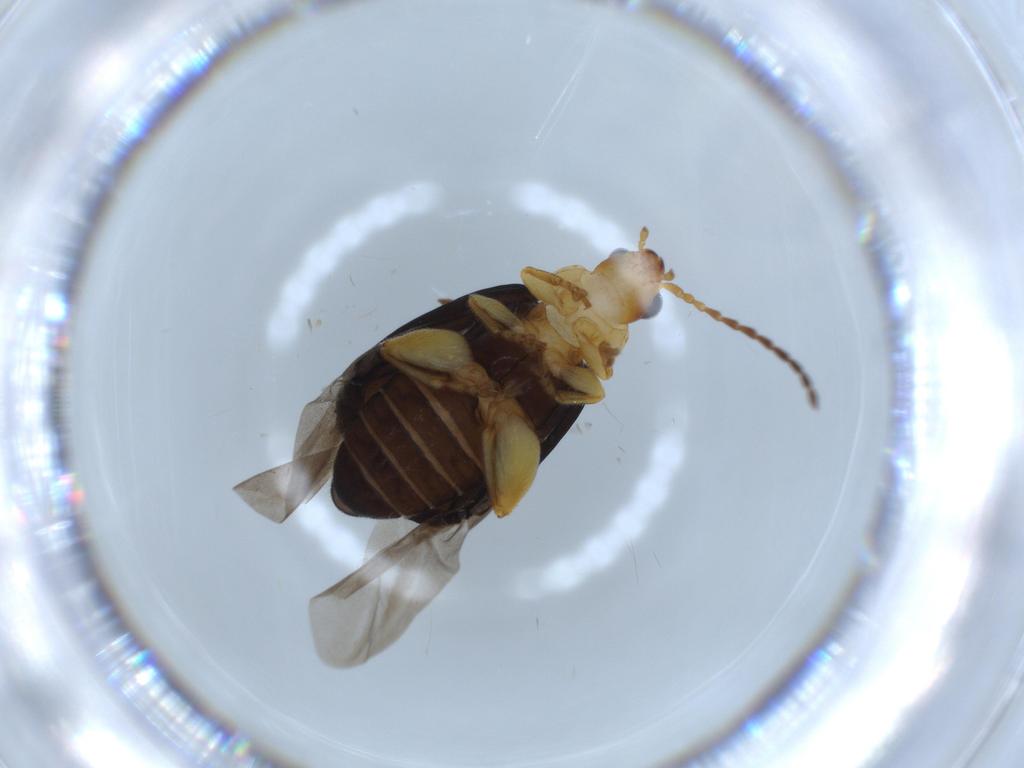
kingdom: Animalia
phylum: Arthropoda
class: Insecta
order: Coleoptera
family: Chrysomelidae
